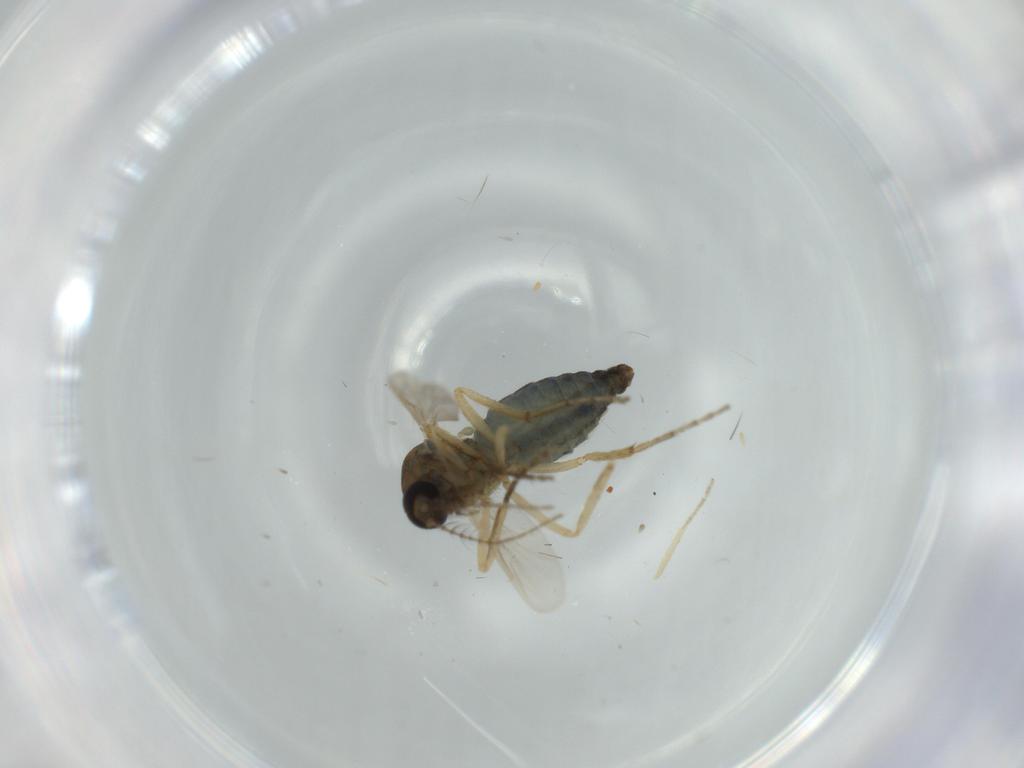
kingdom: Animalia
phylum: Arthropoda
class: Insecta
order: Diptera
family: Ceratopogonidae
